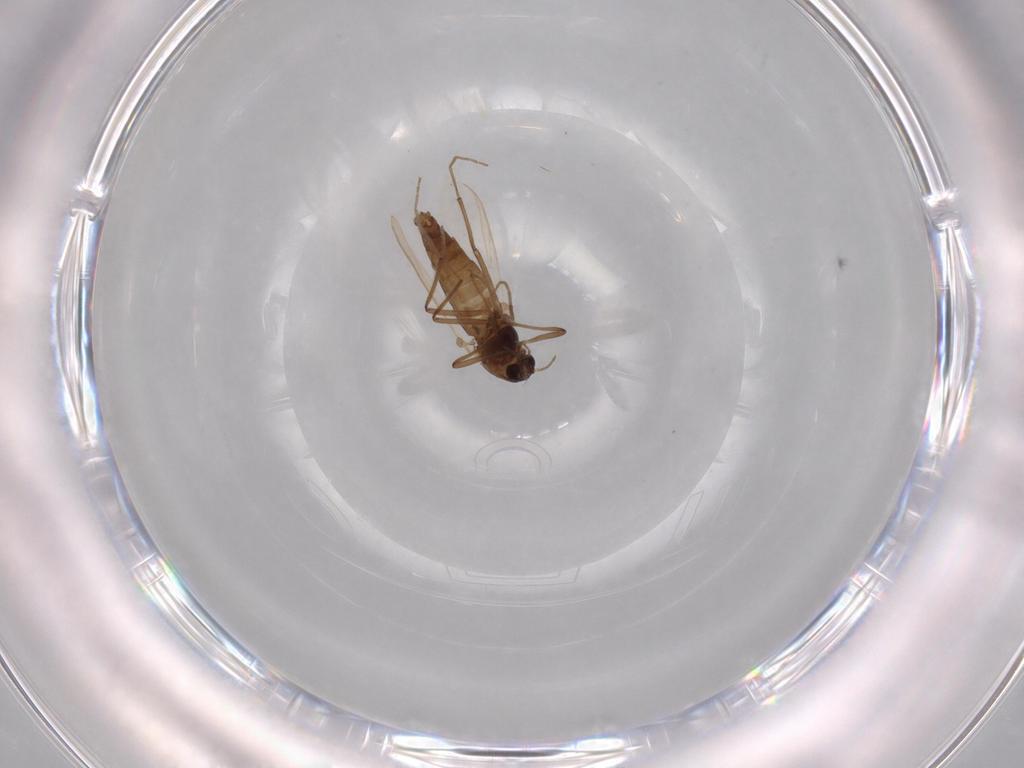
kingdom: Animalia
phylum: Arthropoda
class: Insecta
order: Diptera
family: Chironomidae
